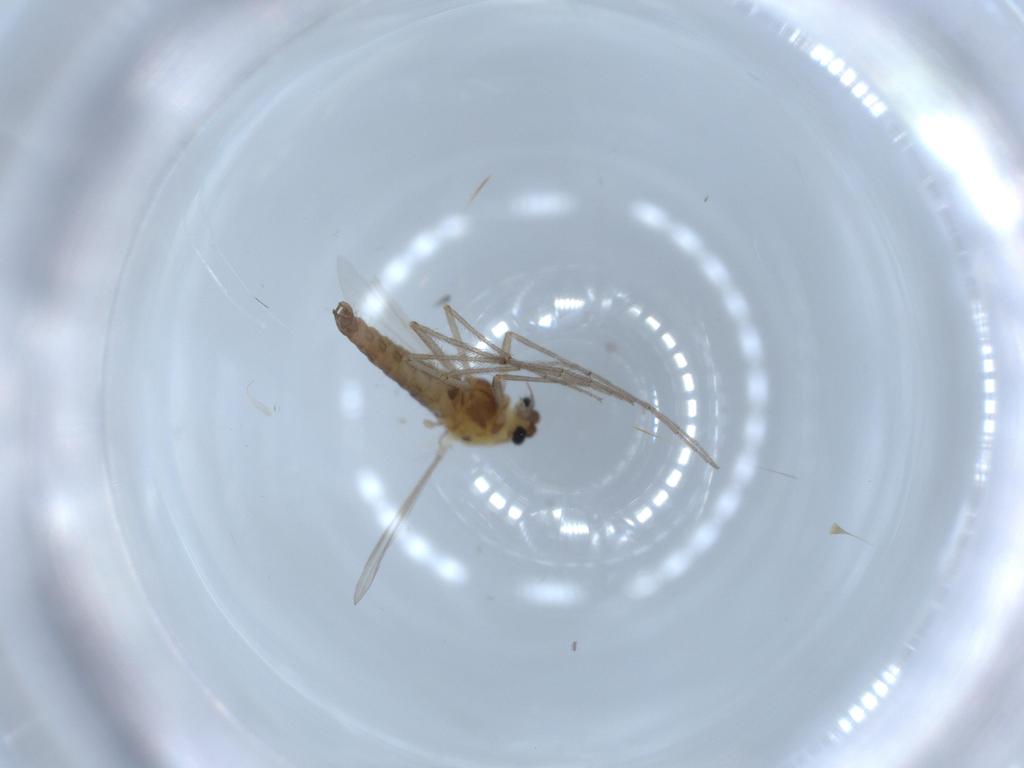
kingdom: Animalia
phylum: Arthropoda
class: Insecta
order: Diptera
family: Chironomidae
